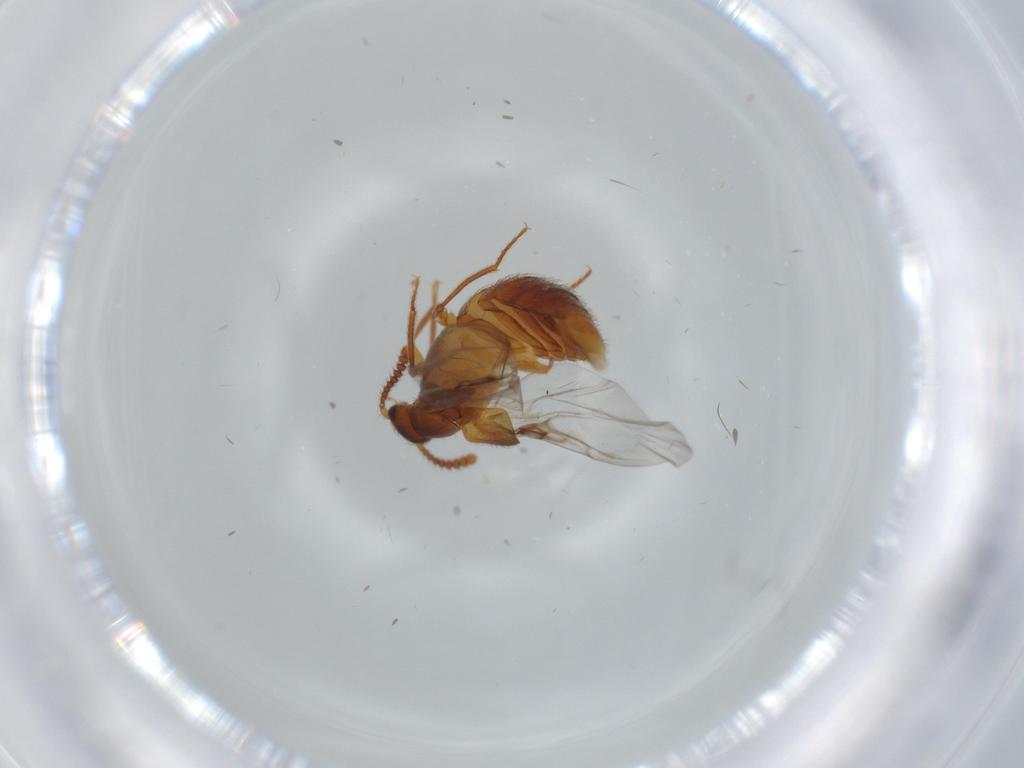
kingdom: Animalia
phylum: Arthropoda
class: Insecta
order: Coleoptera
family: Staphylinidae
